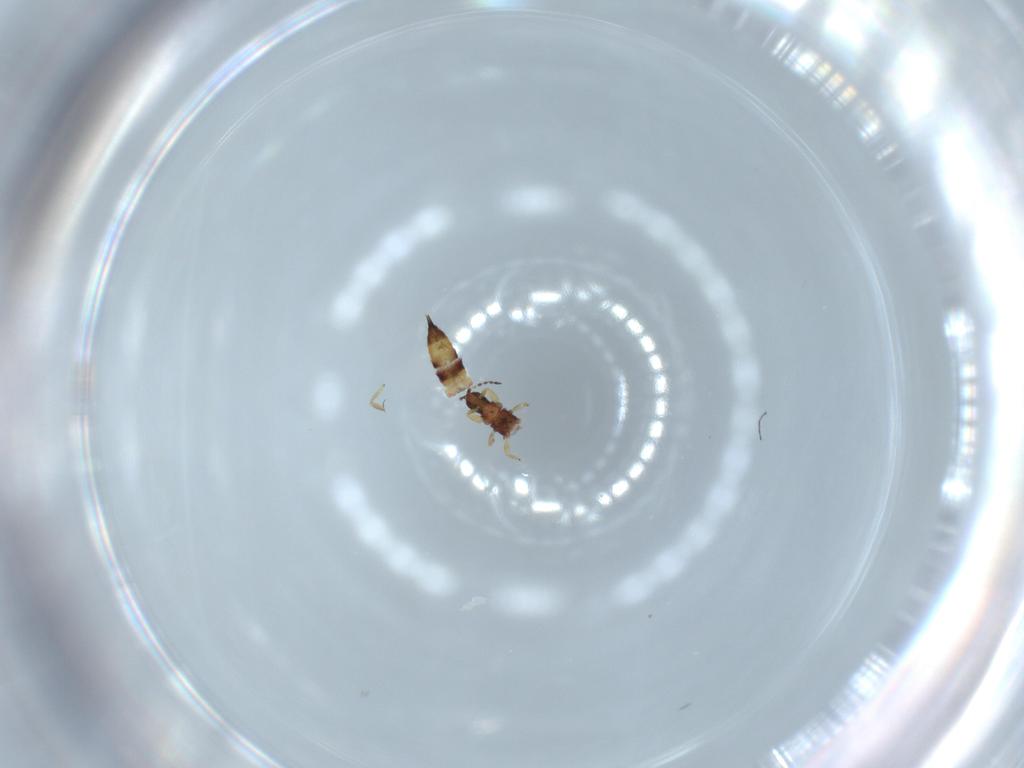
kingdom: Animalia
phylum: Arthropoda
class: Insecta
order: Thysanoptera
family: Phlaeothripidae
